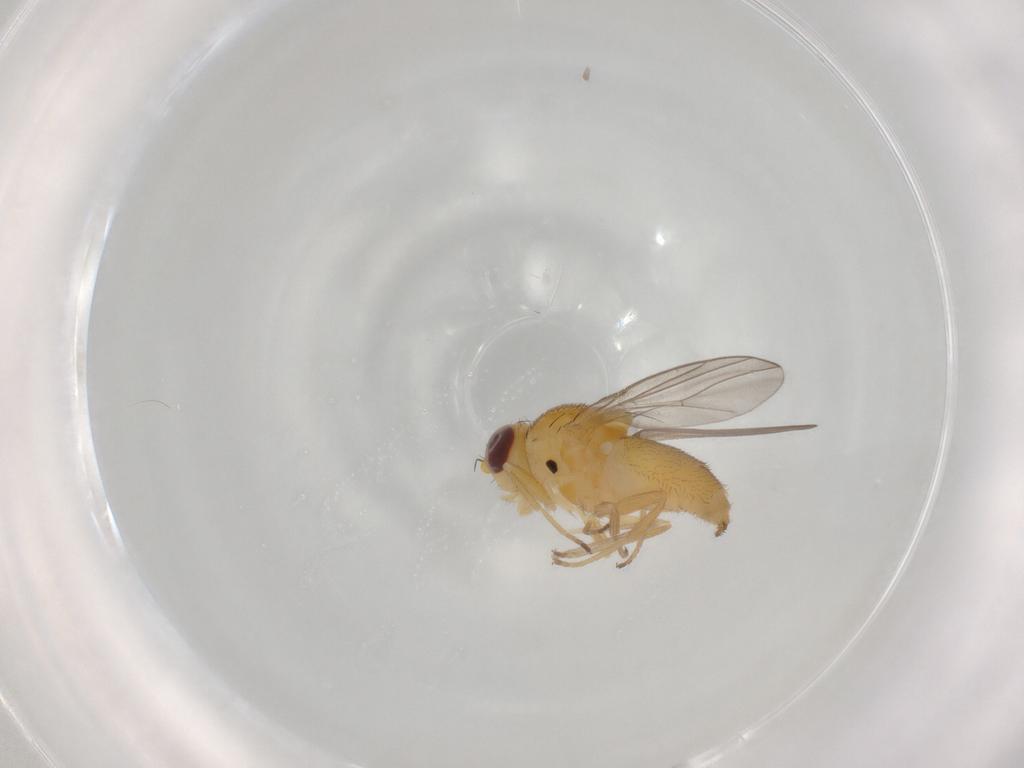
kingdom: Animalia
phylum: Arthropoda
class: Insecta
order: Diptera
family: Chloropidae
